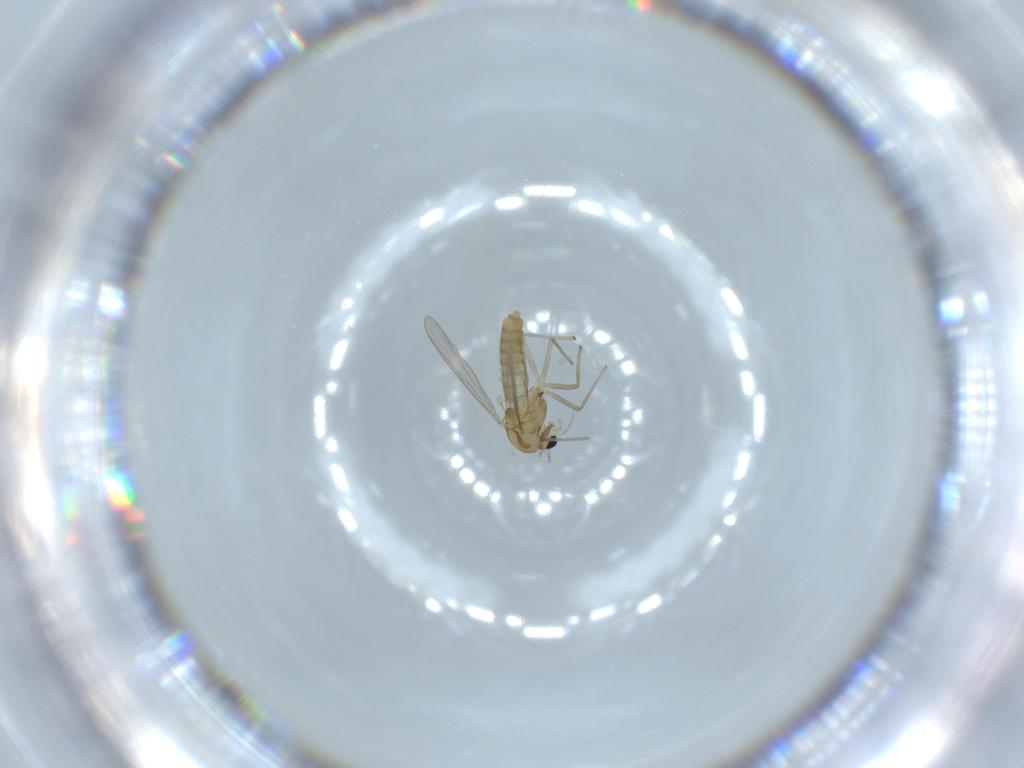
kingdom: Animalia
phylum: Arthropoda
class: Insecta
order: Diptera
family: Chironomidae
